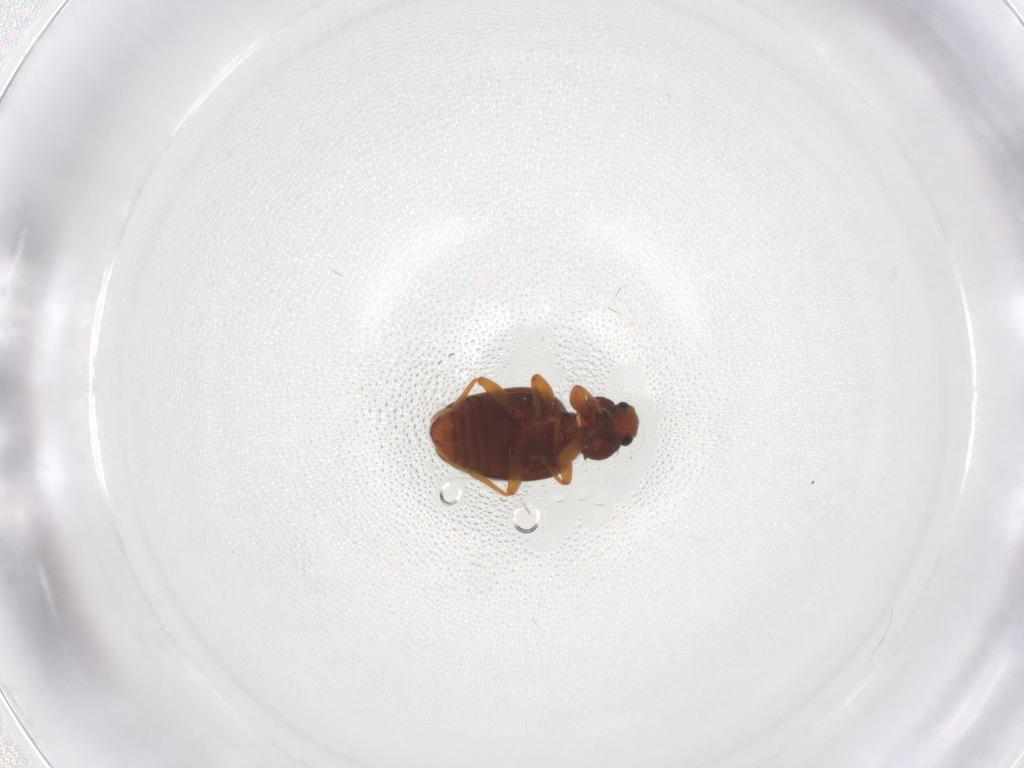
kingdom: Animalia
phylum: Arthropoda
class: Insecta
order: Coleoptera
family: Latridiidae
